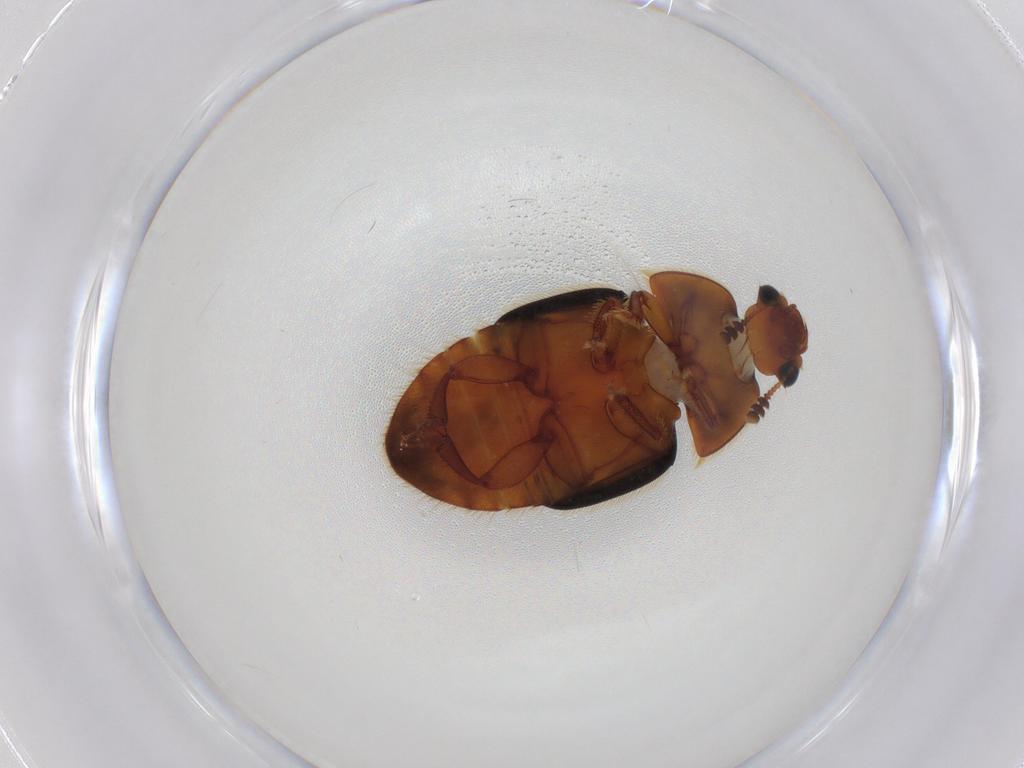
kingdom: Animalia
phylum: Arthropoda
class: Insecta
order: Coleoptera
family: Nitidulidae
